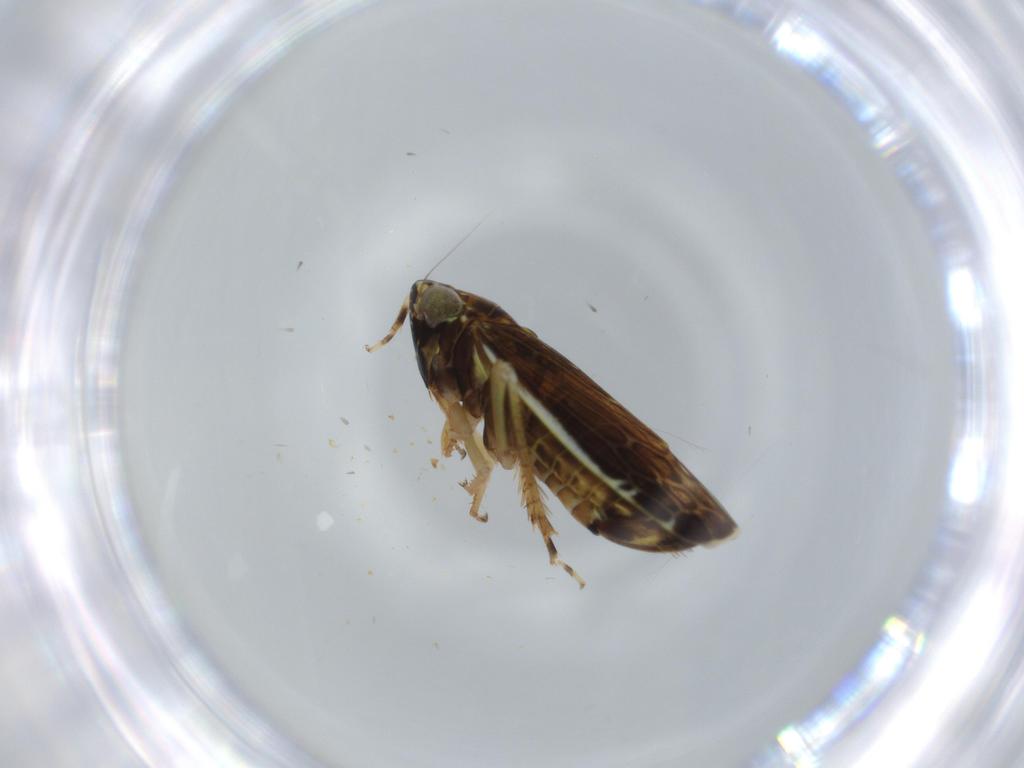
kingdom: Animalia
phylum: Arthropoda
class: Insecta
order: Hemiptera
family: Cicadellidae
